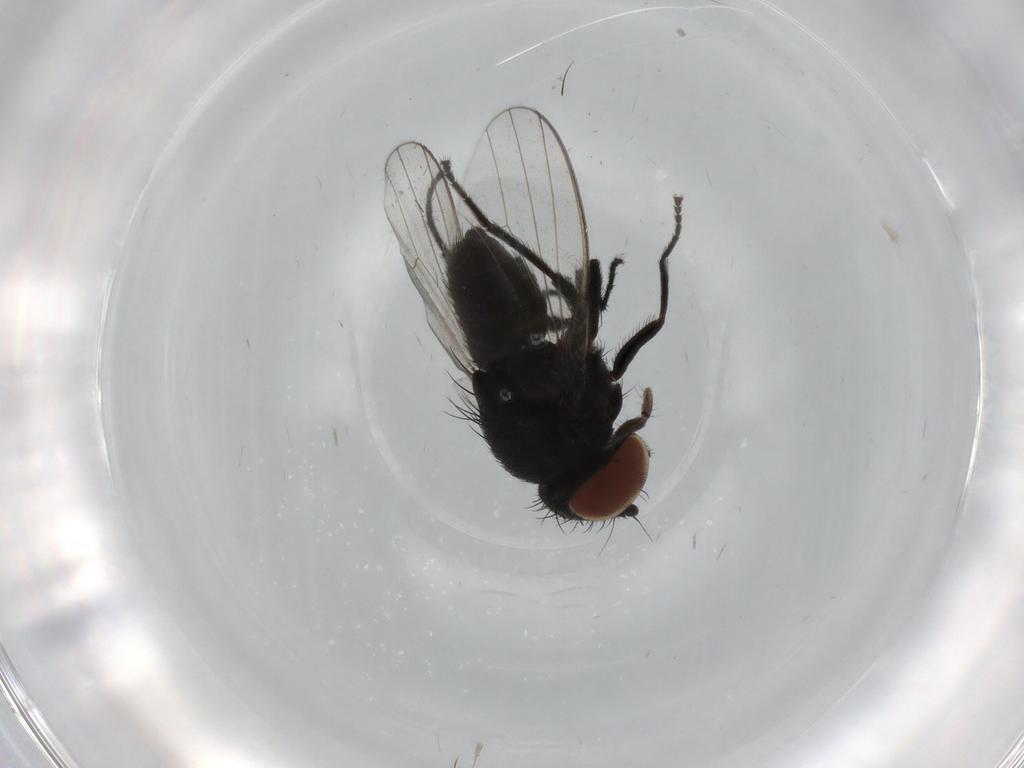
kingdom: Animalia
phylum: Arthropoda
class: Insecta
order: Diptera
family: Milichiidae
